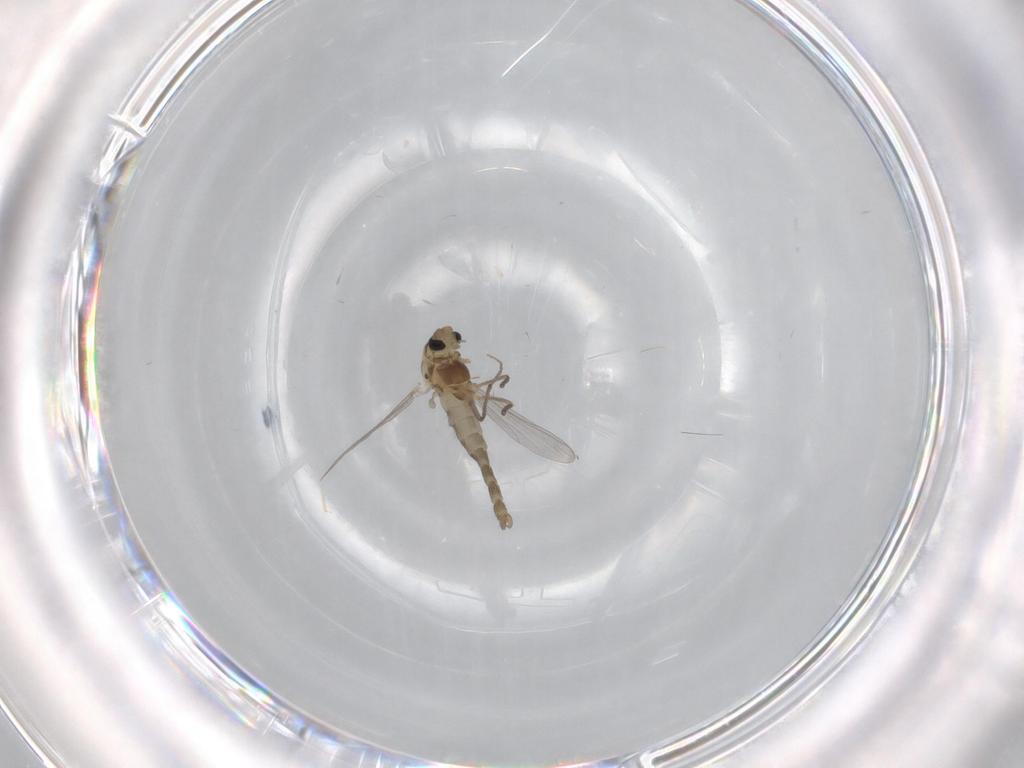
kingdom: Animalia
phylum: Arthropoda
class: Insecta
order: Diptera
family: Chironomidae
